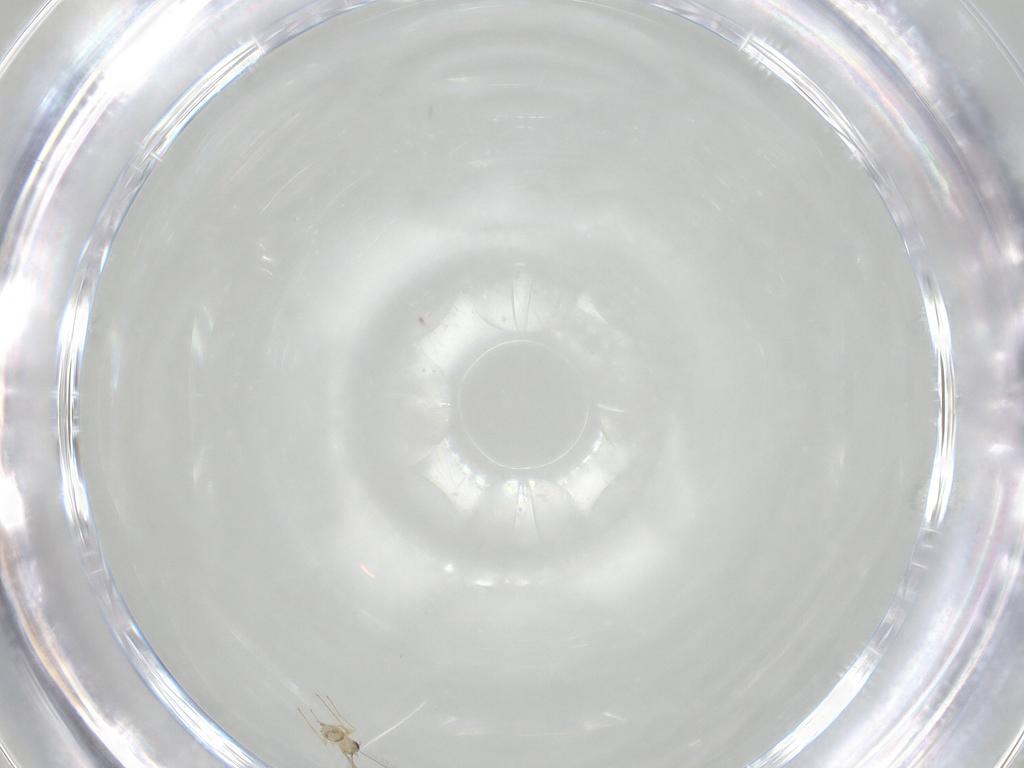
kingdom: Animalia
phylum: Arthropoda
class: Insecta
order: Hymenoptera
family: Mymaridae
